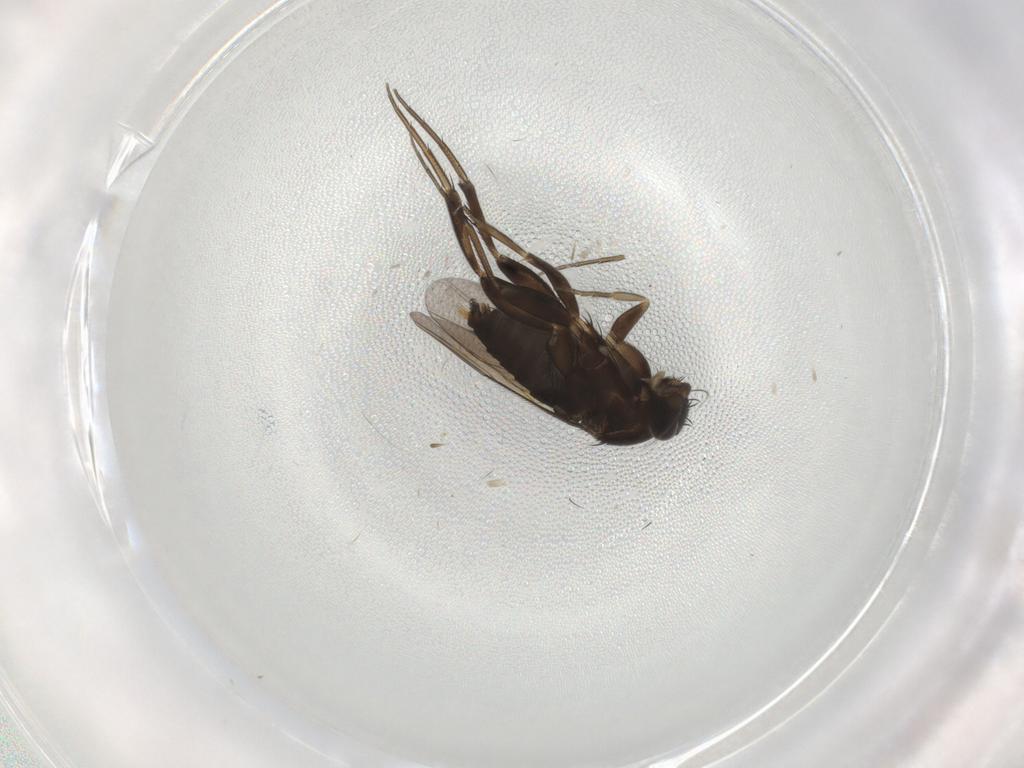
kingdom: Animalia
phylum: Arthropoda
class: Insecta
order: Diptera
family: Phoridae
